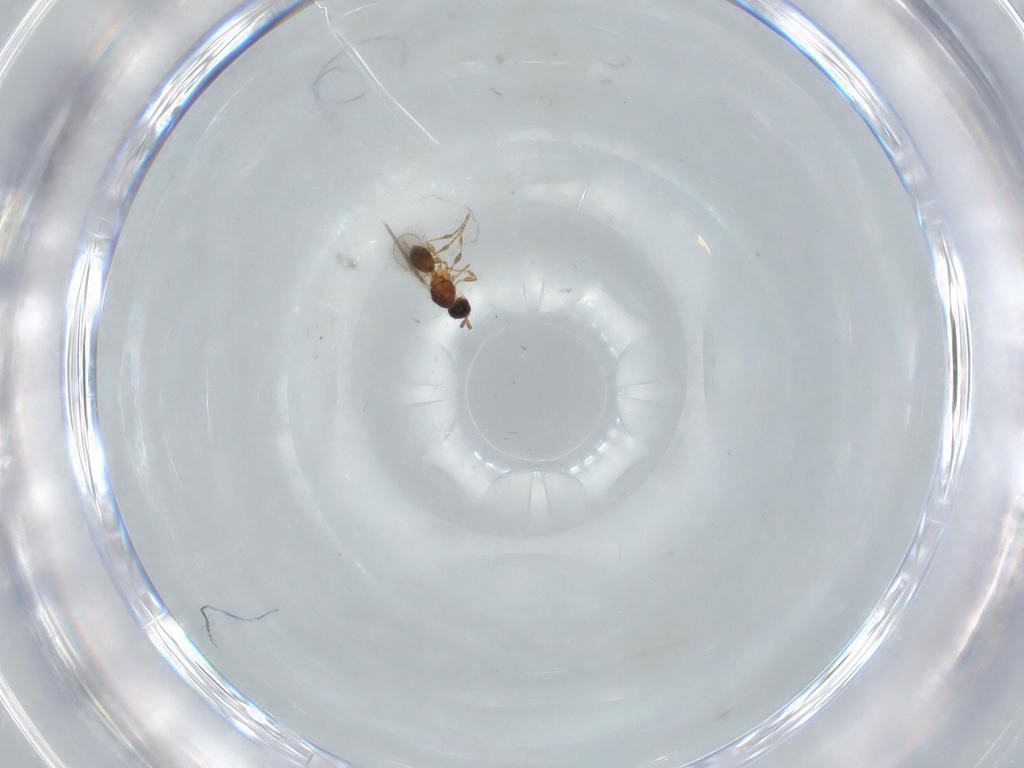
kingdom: Animalia
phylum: Arthropoda
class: Insecta
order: Hymenoptera
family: Diapriidae
